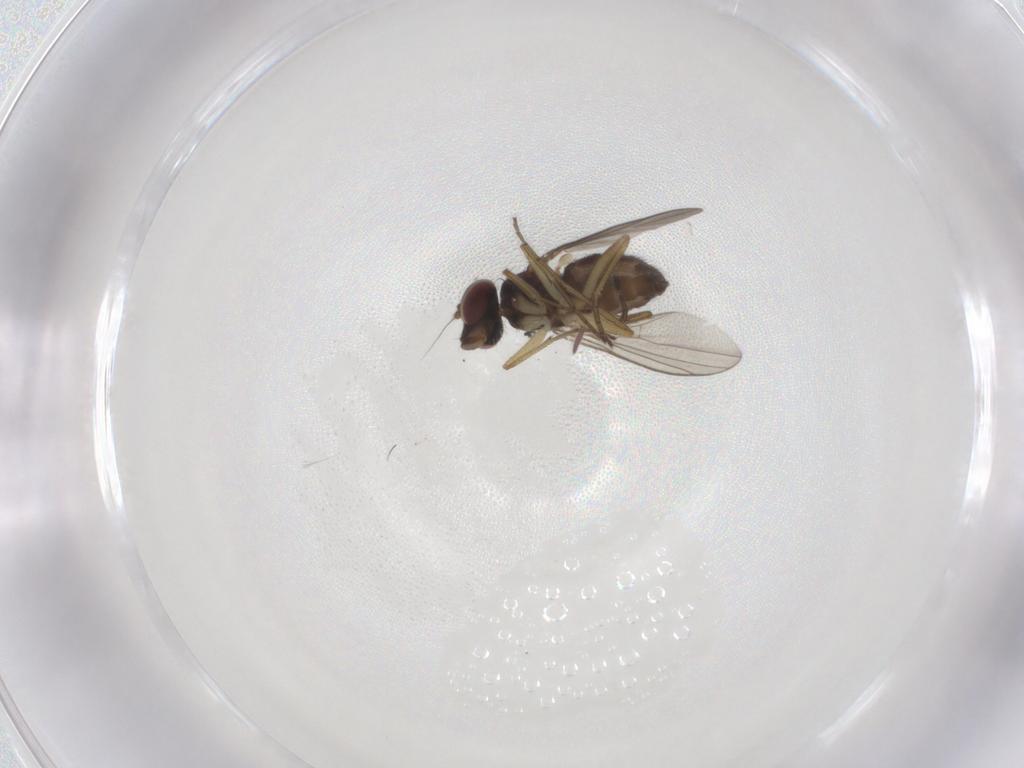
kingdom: Animalia
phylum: Arthropoda
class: Insecta
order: Diptera
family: Dolichopodidae
